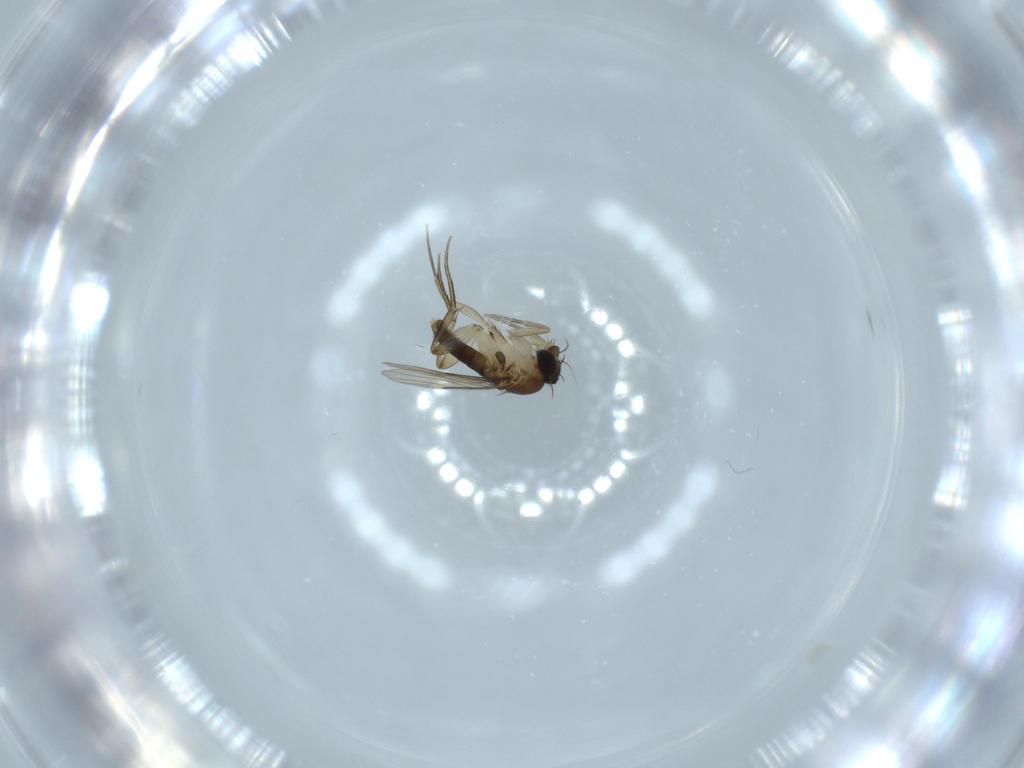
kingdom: Animalia
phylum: Arthropoda
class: Insecta
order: Diptera
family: Phoridae
